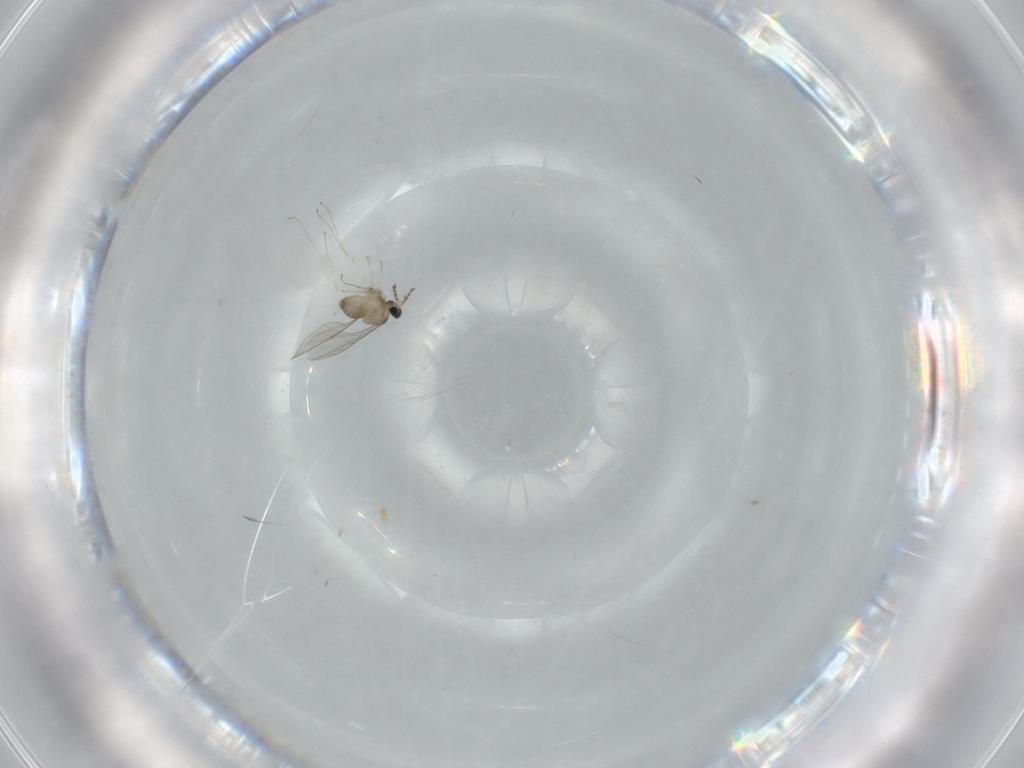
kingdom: Animalia
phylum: Arthropoda
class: Insecta
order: Diptera
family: Cecidomyiidae
